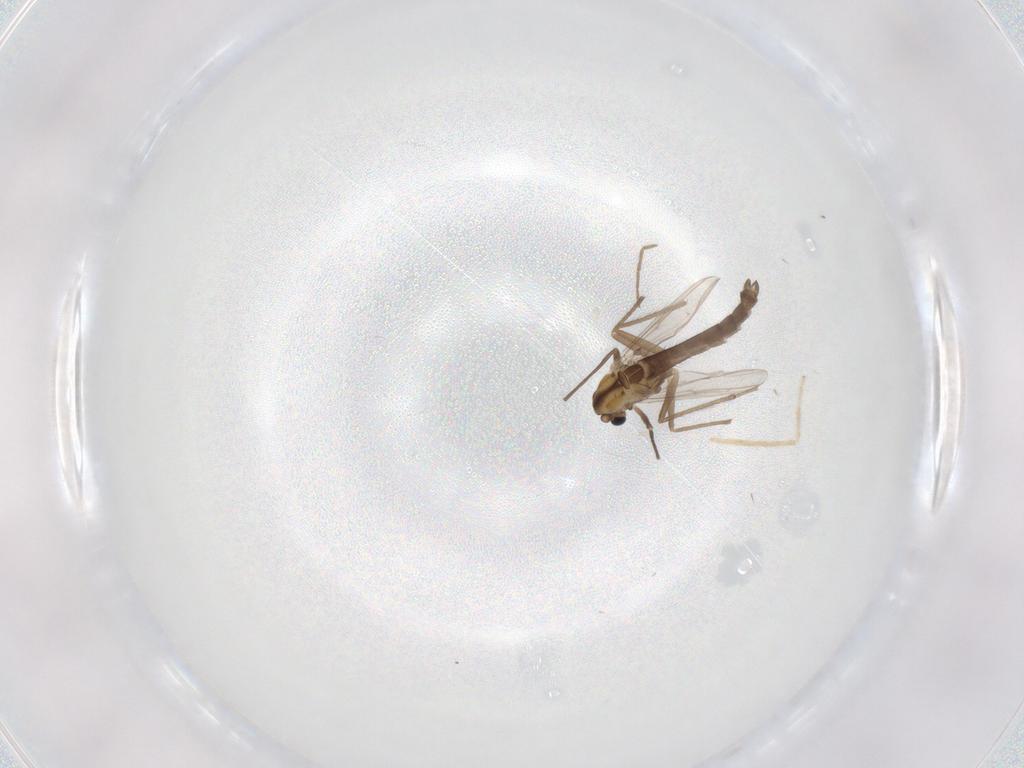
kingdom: Animalia
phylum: Arthropoda
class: Insecta
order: Diptera
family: Chironomidae
